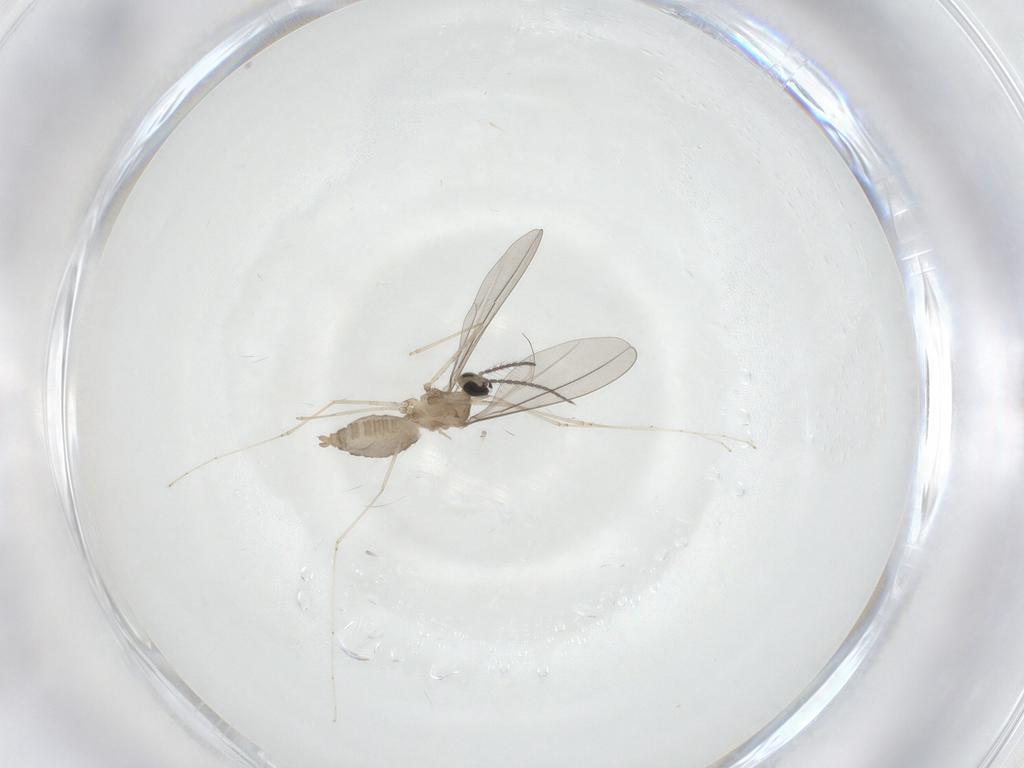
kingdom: Animalia
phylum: Arthropoda
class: Insecta
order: Diptera
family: Cecidomyiidae
